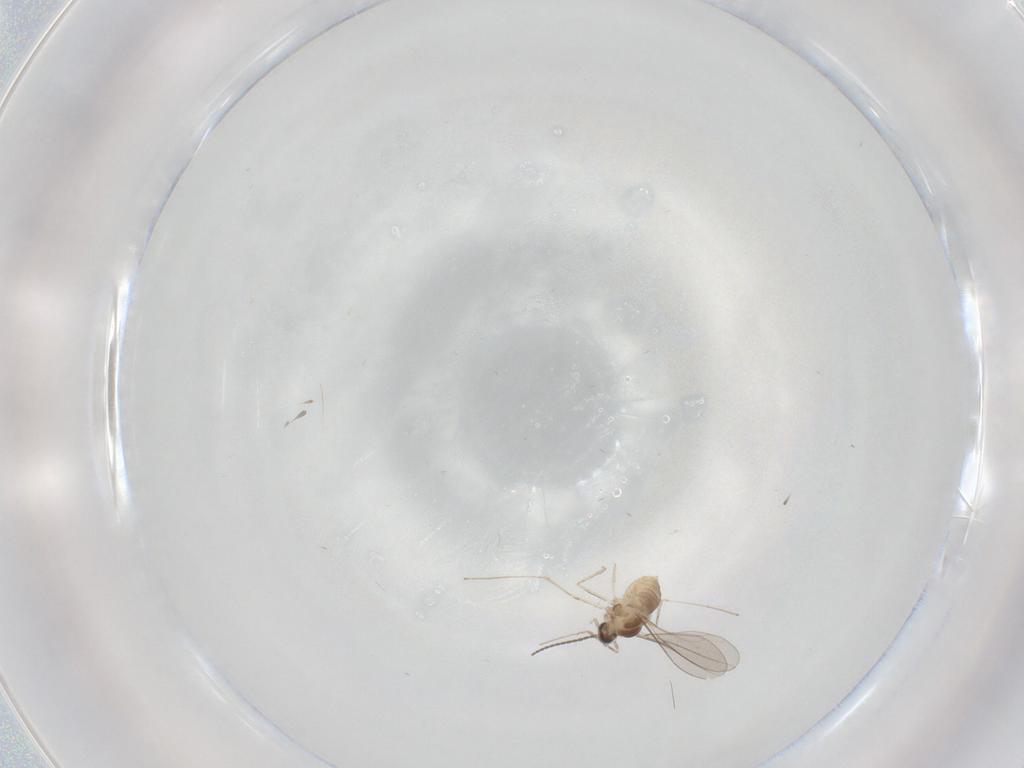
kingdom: Animalia
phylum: Arthropoda
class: Insecta
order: Diptera
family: Cecidomyiidae
